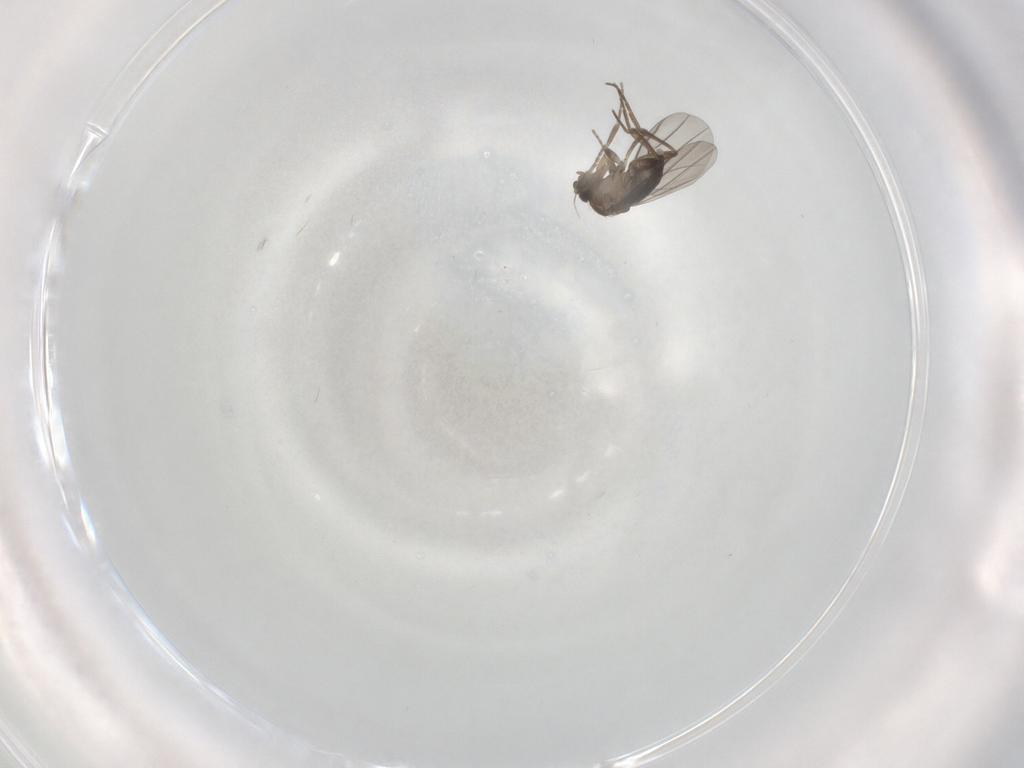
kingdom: Animalia
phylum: Arthropoda
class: Insecta
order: Diptera
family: Phoridae
